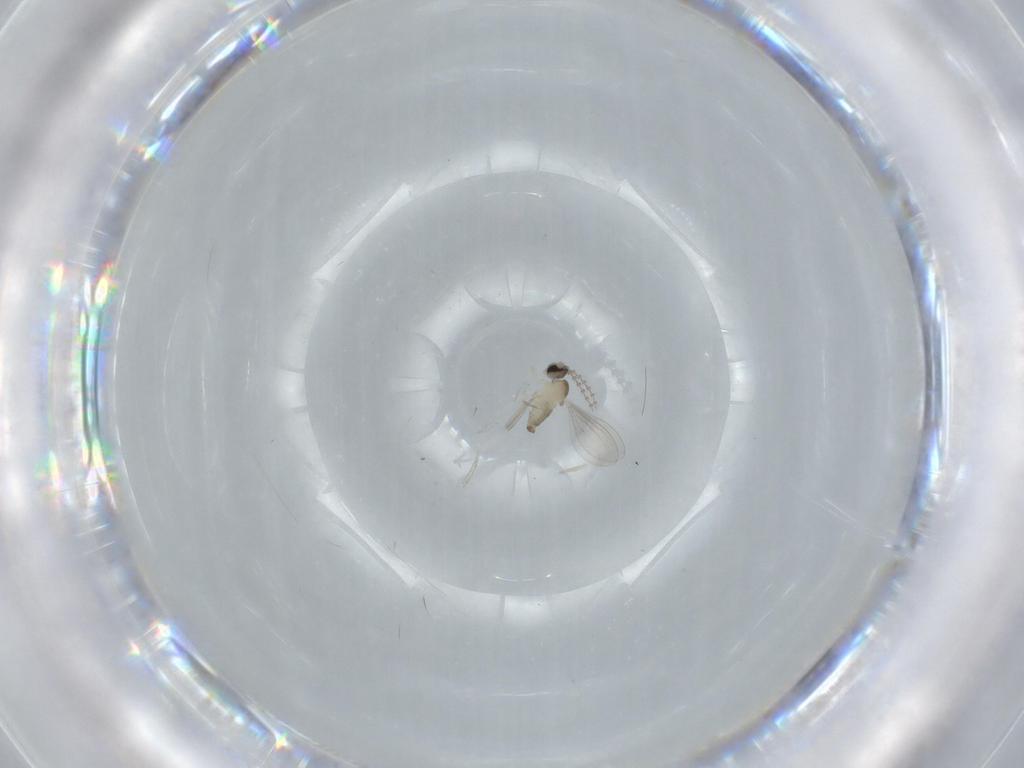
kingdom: Animalia
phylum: Arthropoda
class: Insecta
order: Diptera
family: Cecidomyiidae
